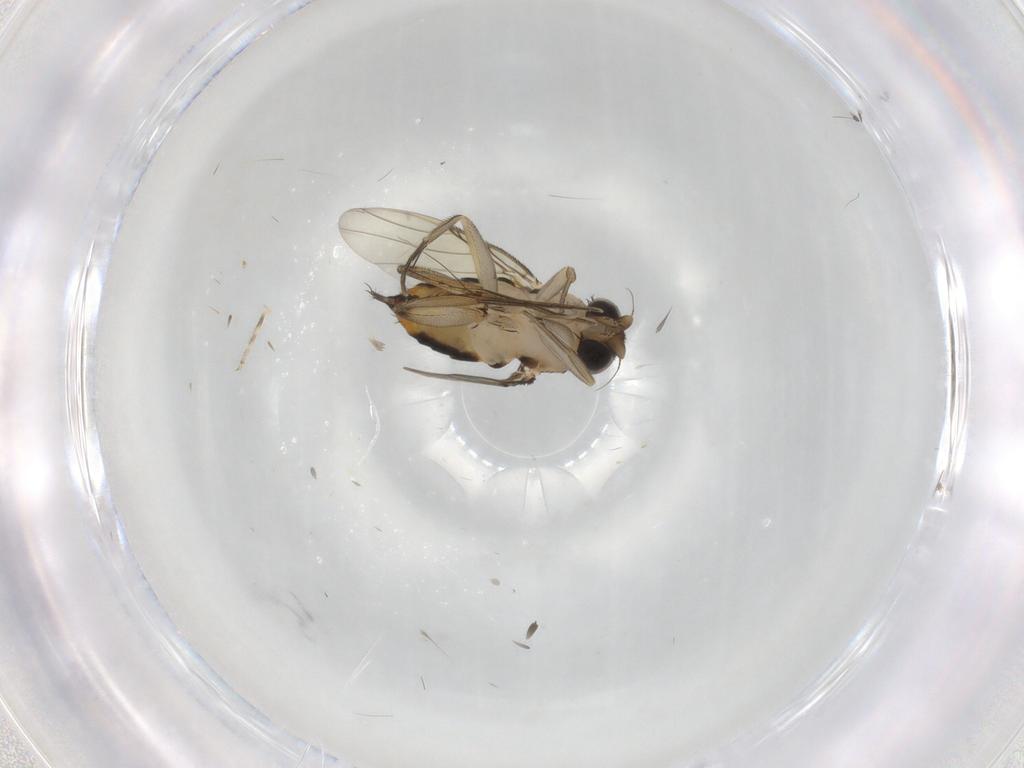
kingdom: Animalia
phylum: Arthropoda
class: Insecta
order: Diptera
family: Phoridae
